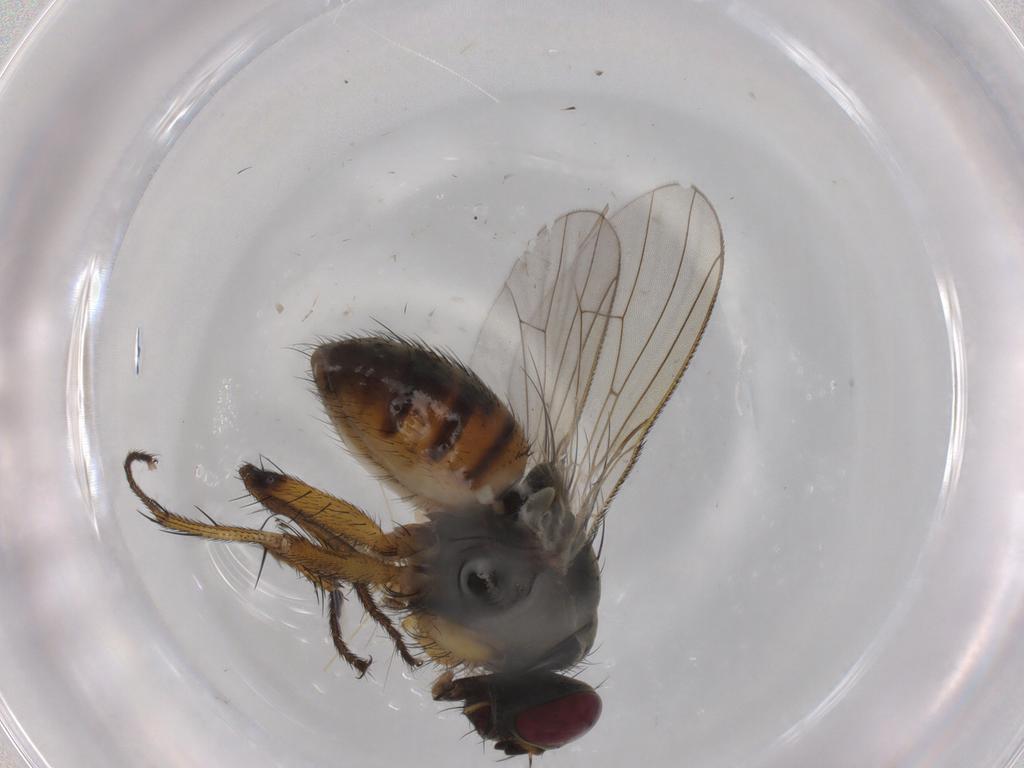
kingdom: Animalia
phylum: Arthropoda
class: Insecta
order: Diptera
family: Muscidae
